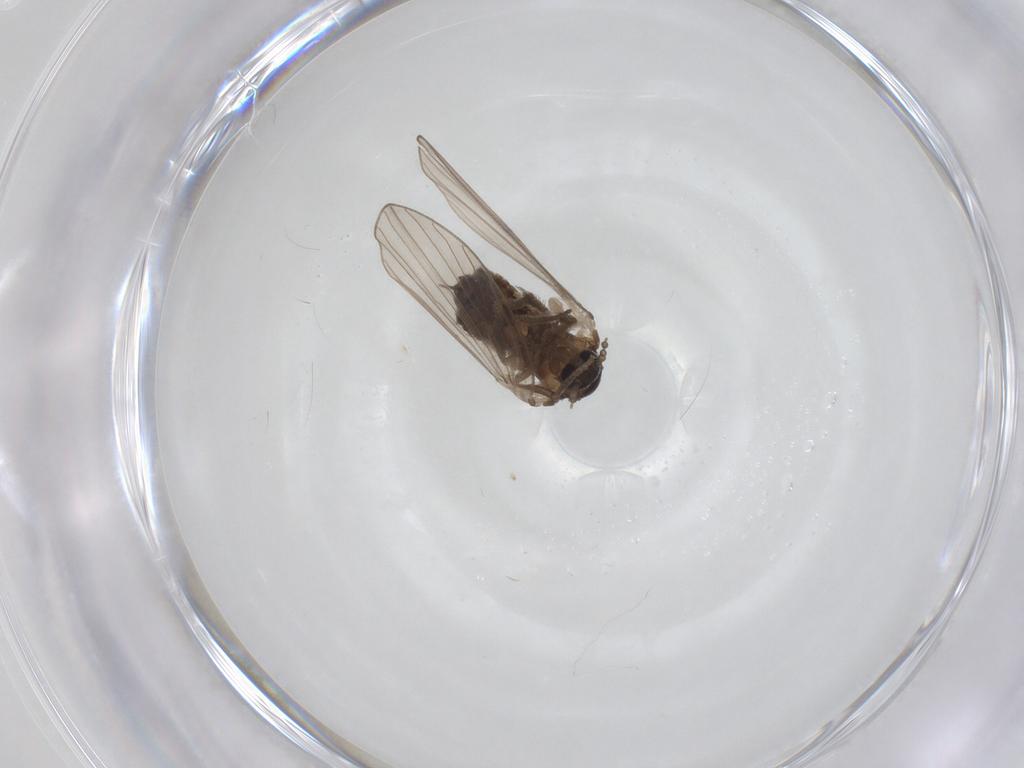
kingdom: Animalia
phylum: Arthropoda
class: Insecta
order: Diptera
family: Psychodidae
